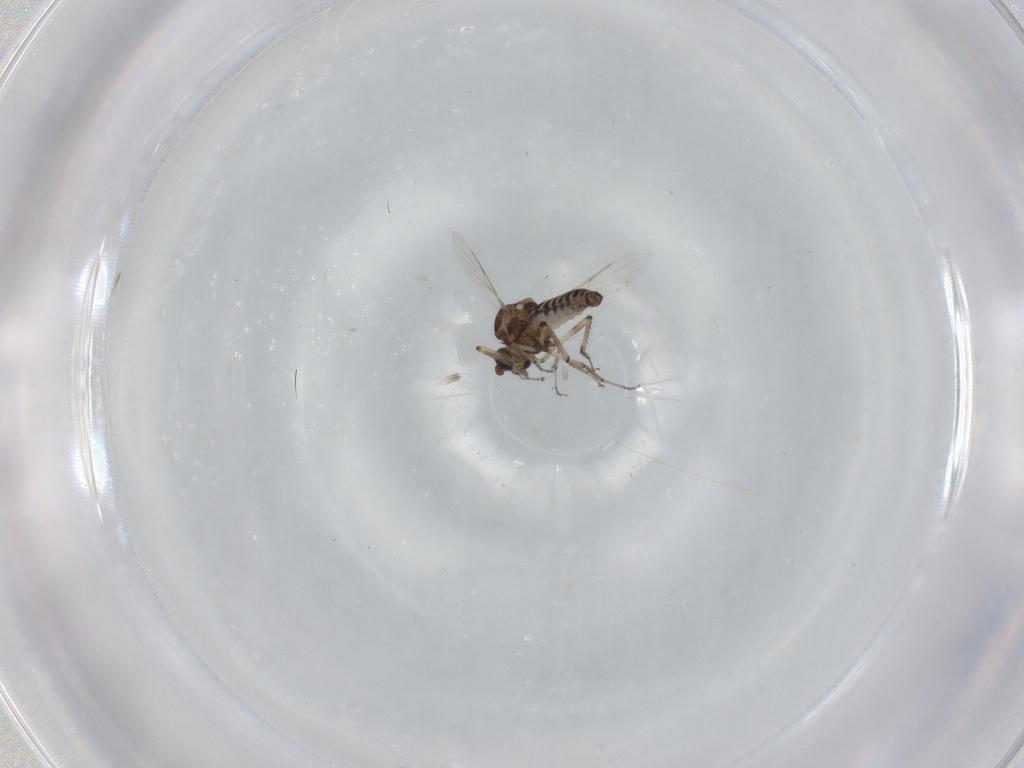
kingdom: Animalia
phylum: Arthropoda
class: Insecta
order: Diptera
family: Ceratopogonidae
